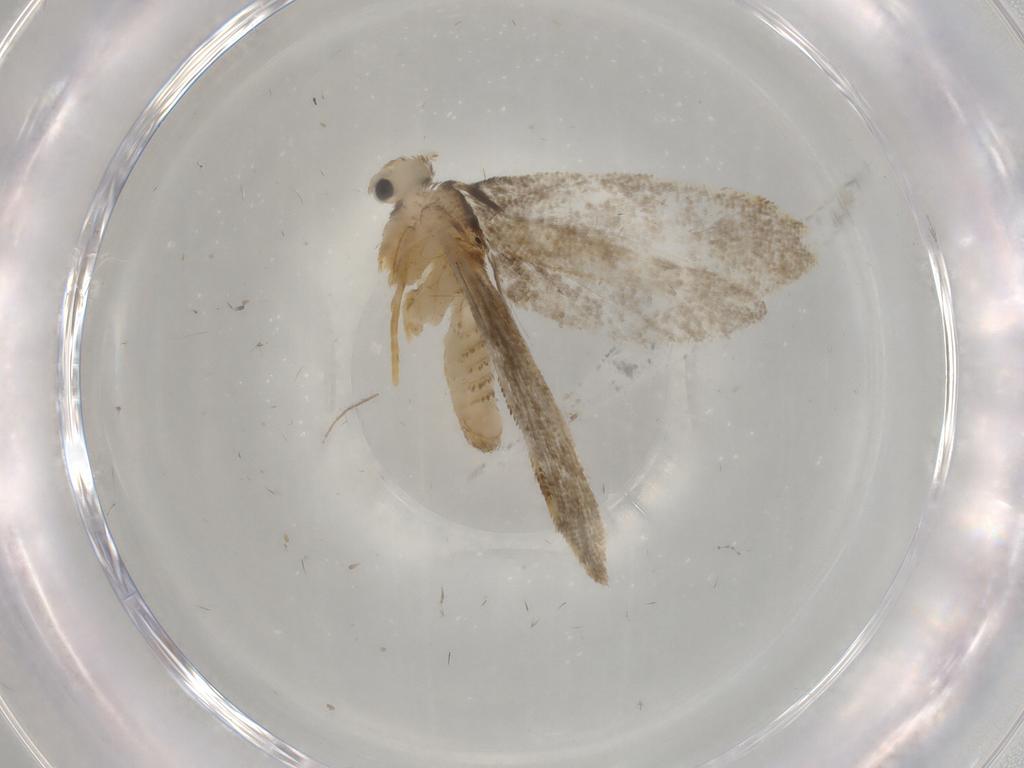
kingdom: Animalia
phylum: Arthropoda
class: Insecta
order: Lepidoptera
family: Psychidae
